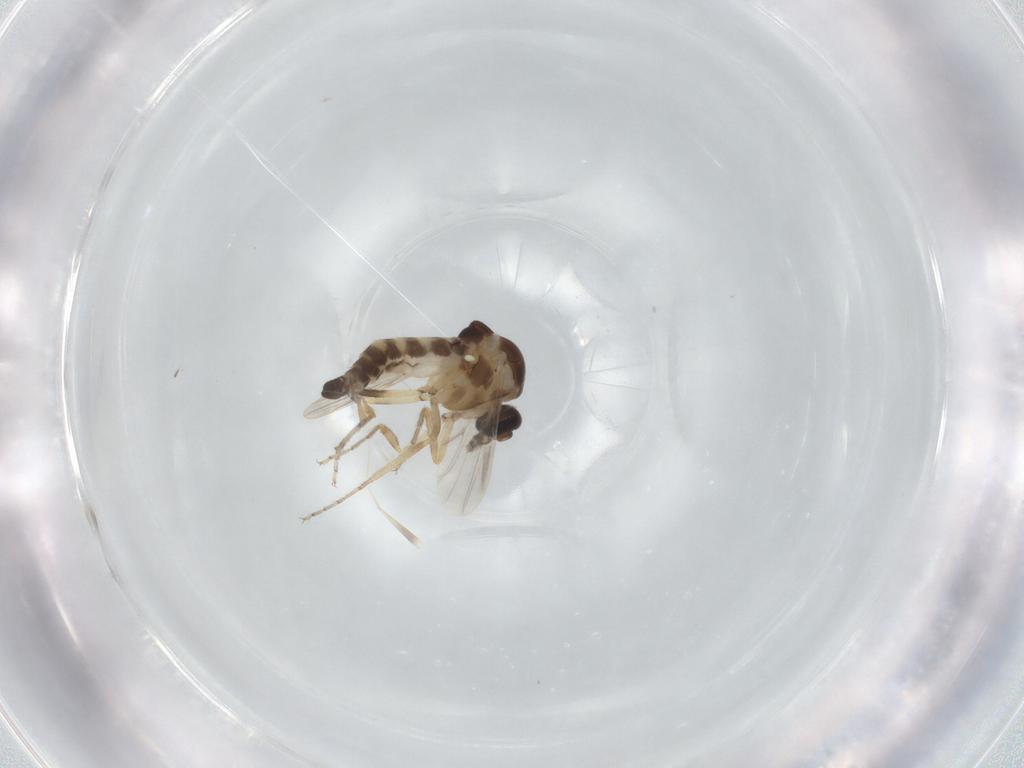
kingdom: Animalia
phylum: Arthropoda
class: Insecta
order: Diptera
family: Ceratopogonidae
